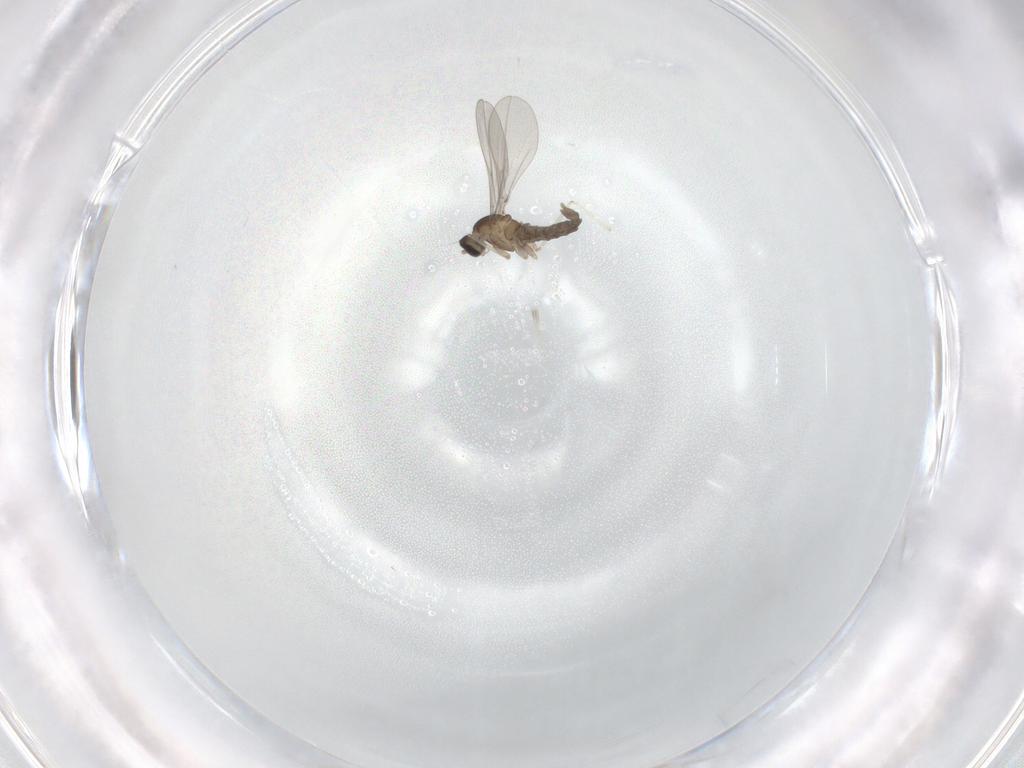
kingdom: Animalia
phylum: Arthropoda
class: Insecta
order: Diptera
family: Cecidomyiidae
